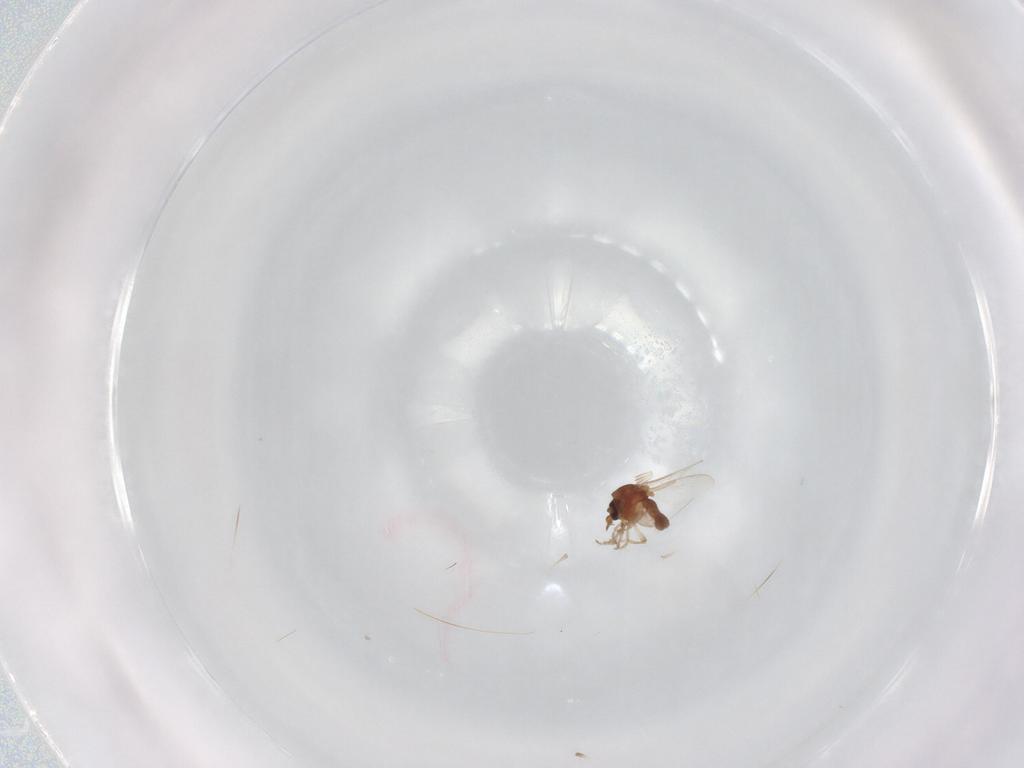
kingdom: Animalia
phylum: Arthropoda
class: Insecta
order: Diptera
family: Ceratopogonidae
